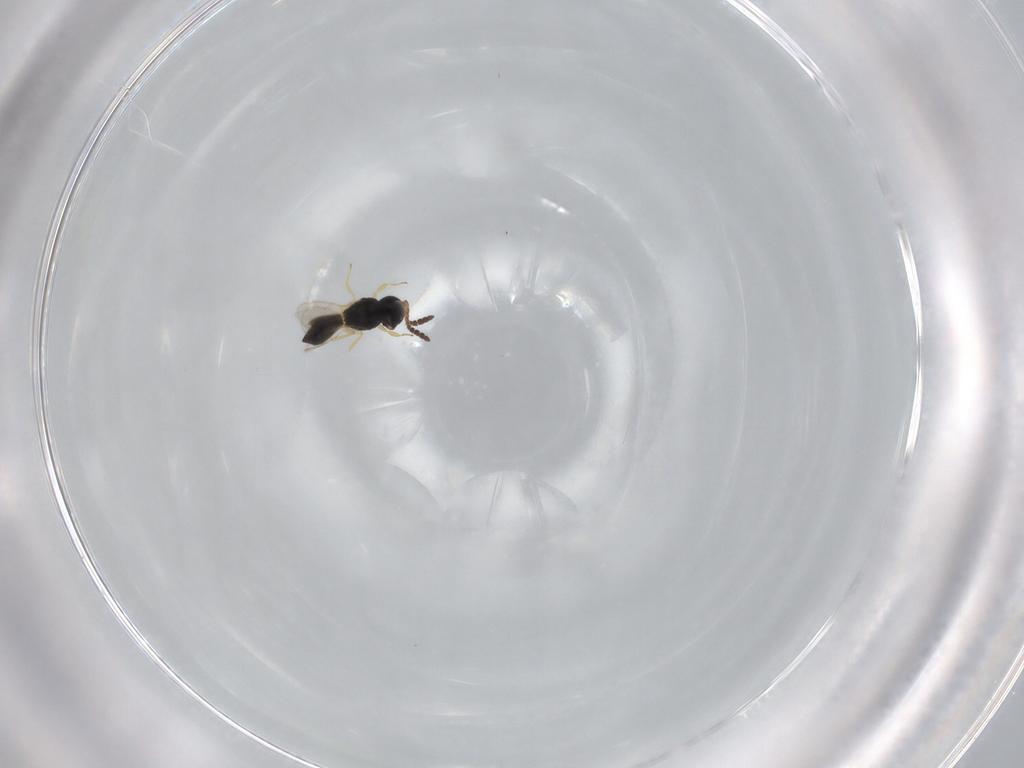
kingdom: Animalia
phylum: Arthropoda
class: Insecta
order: Hymenoptera
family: Scelionidae
